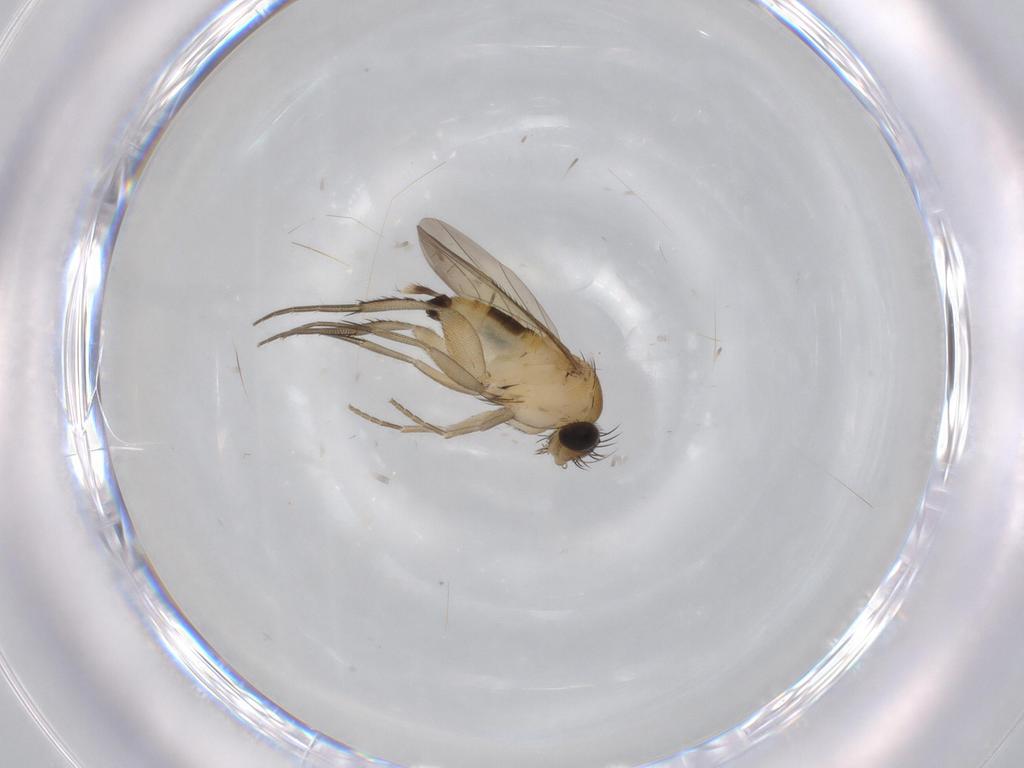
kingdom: Animalia
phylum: Arthropoda
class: Insecta
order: Diptera
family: Phoridae
